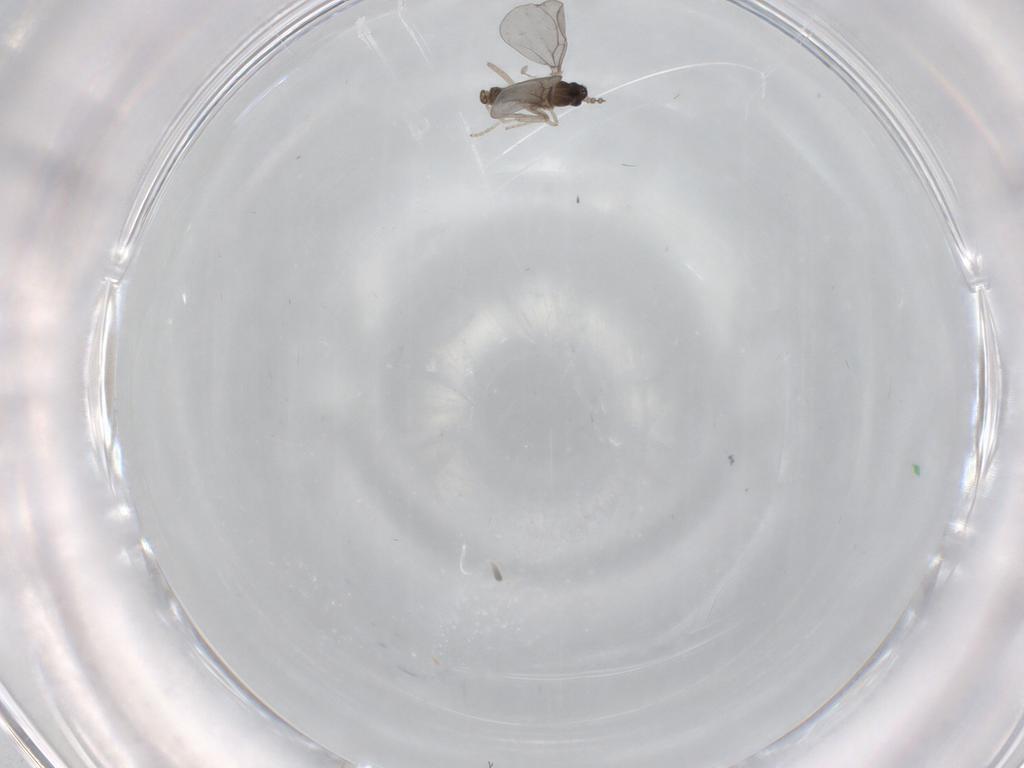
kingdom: Animalia
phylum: Arthropoda
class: Insecta
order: Diptera
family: Cecidomyiidae
